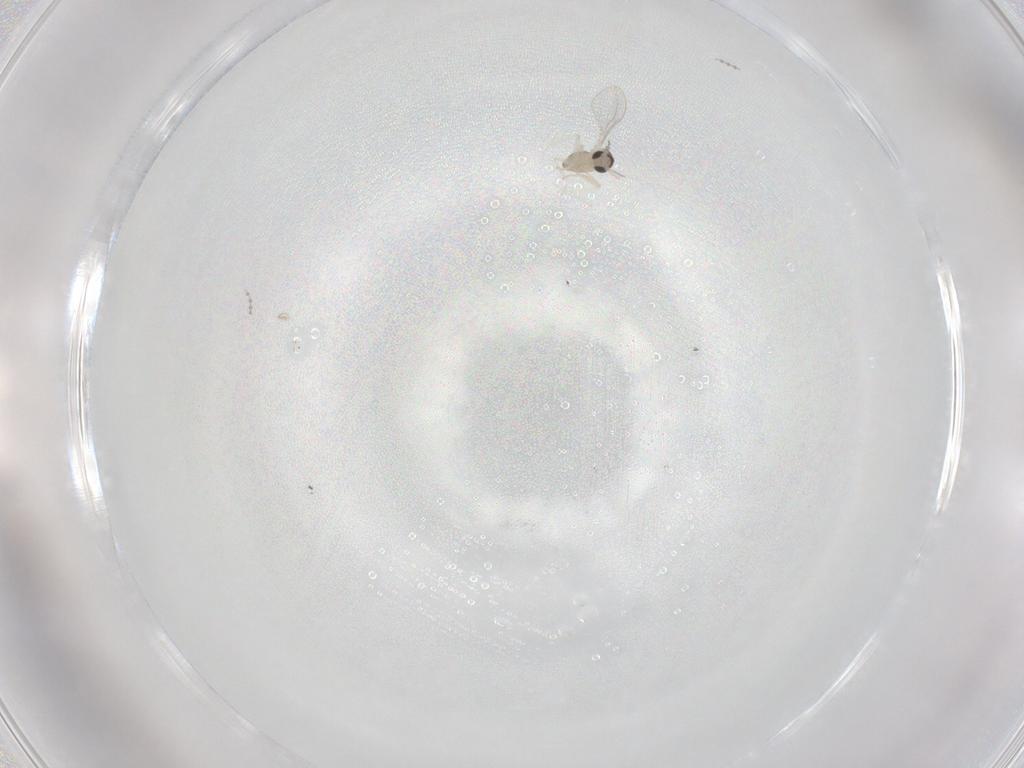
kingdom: Animalia
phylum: Arthropoda
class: Insecta
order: Diptera
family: Cecidomyiidae
